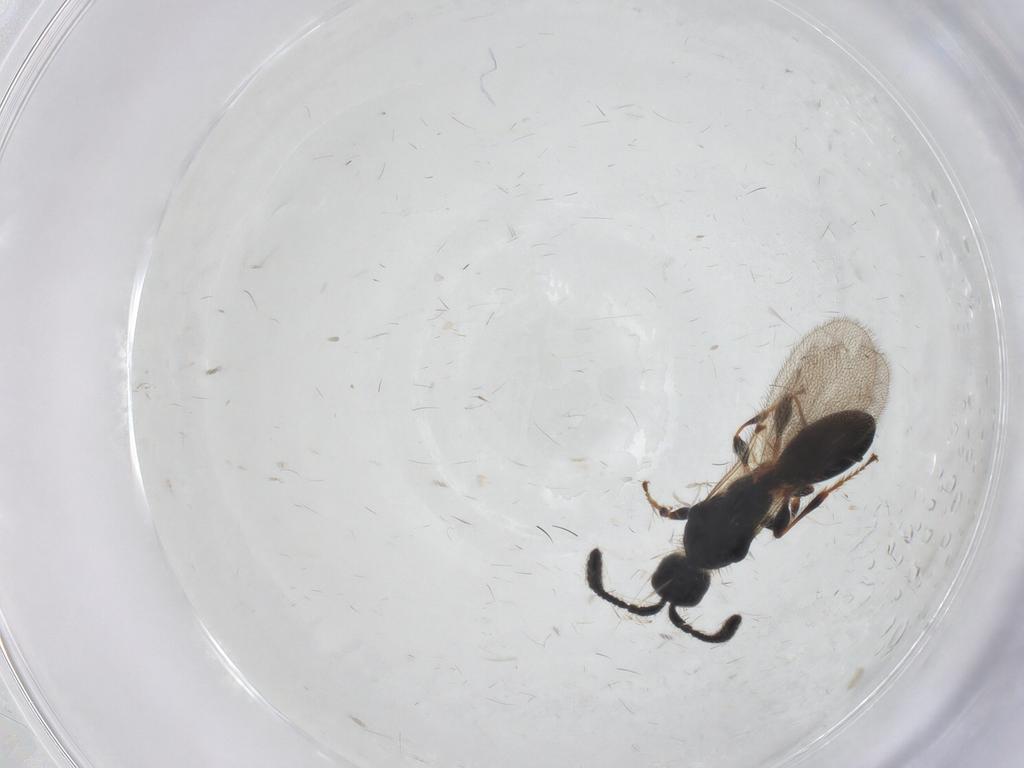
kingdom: Animalia
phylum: Arthropoda
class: Insecta
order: Hymenoptera
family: Diapriidae
